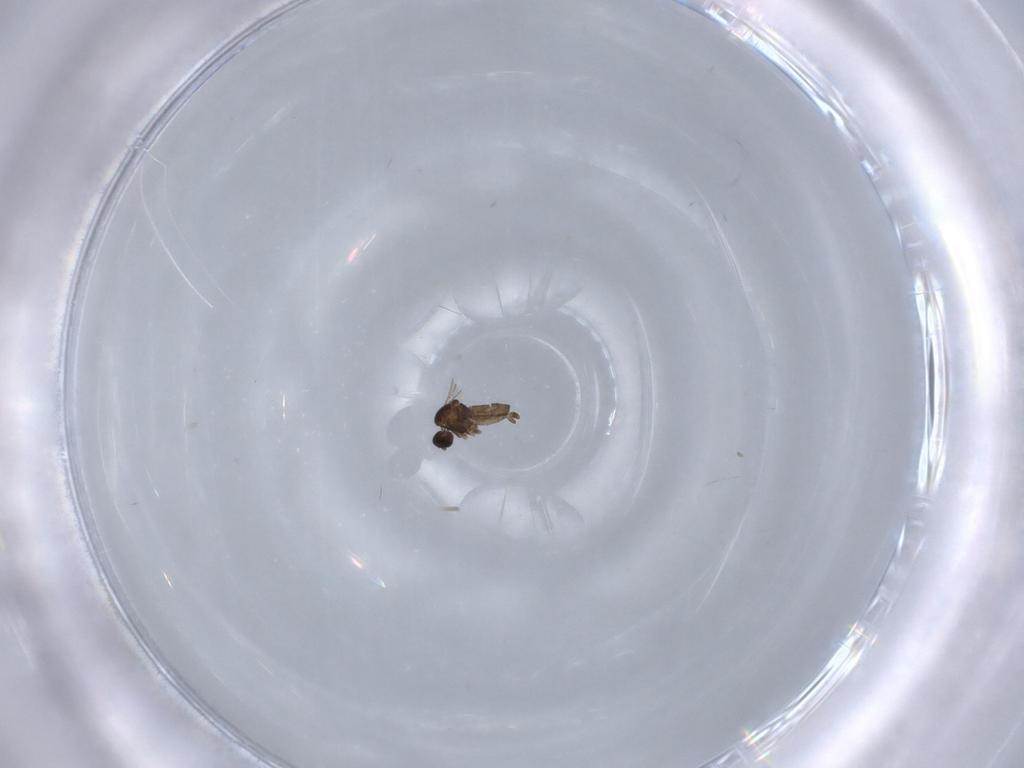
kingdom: Animalia
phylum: Arthropoda
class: Insecta
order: Diptera
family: Cecidomyiidae
